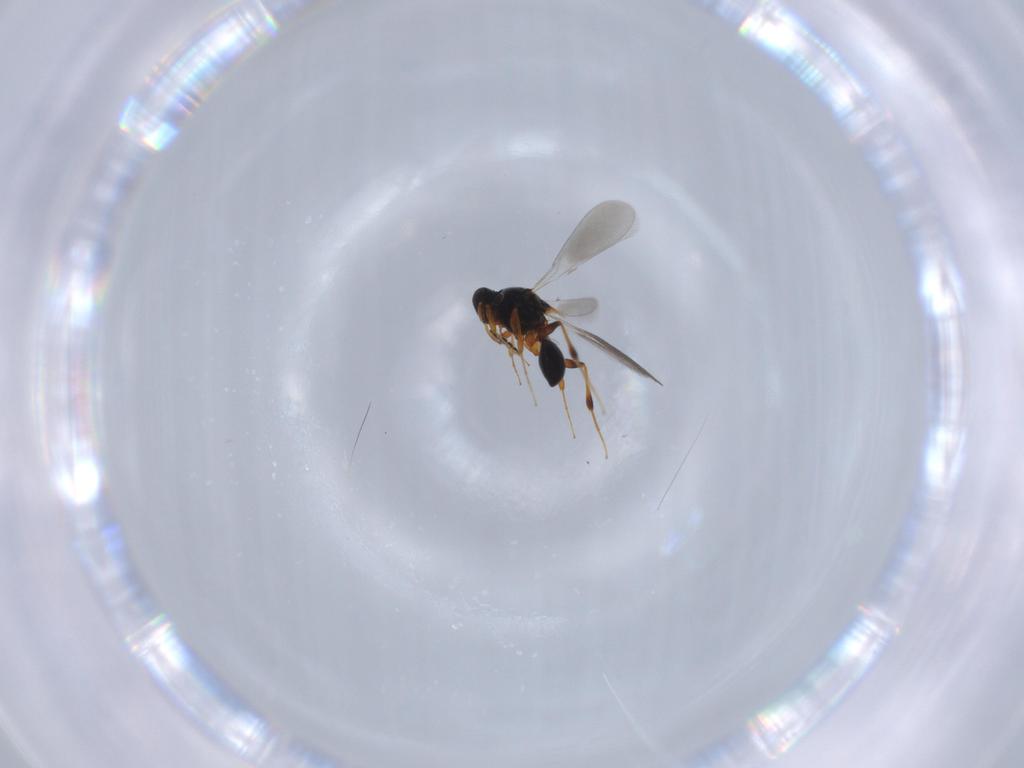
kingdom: Animalia
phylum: Arthropoda
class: Insecta
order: Hymenoptera
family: Platygastridae
